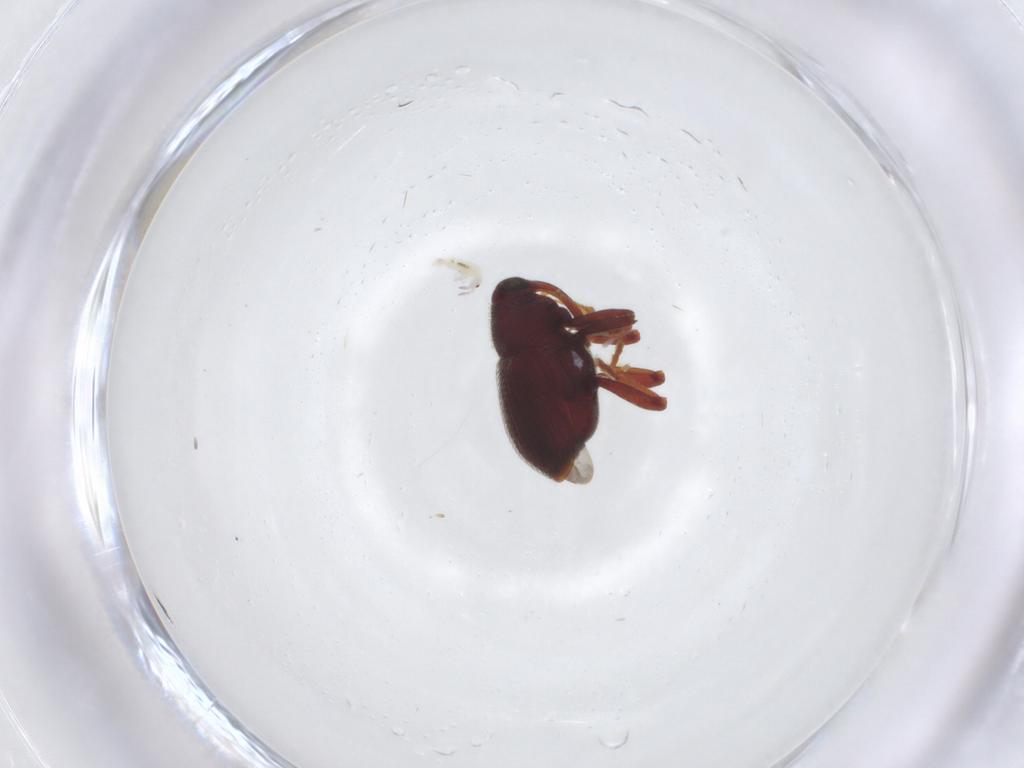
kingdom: Animalia
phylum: Arthropoda
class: Insecta
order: Coleoptera
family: Curculionidae
